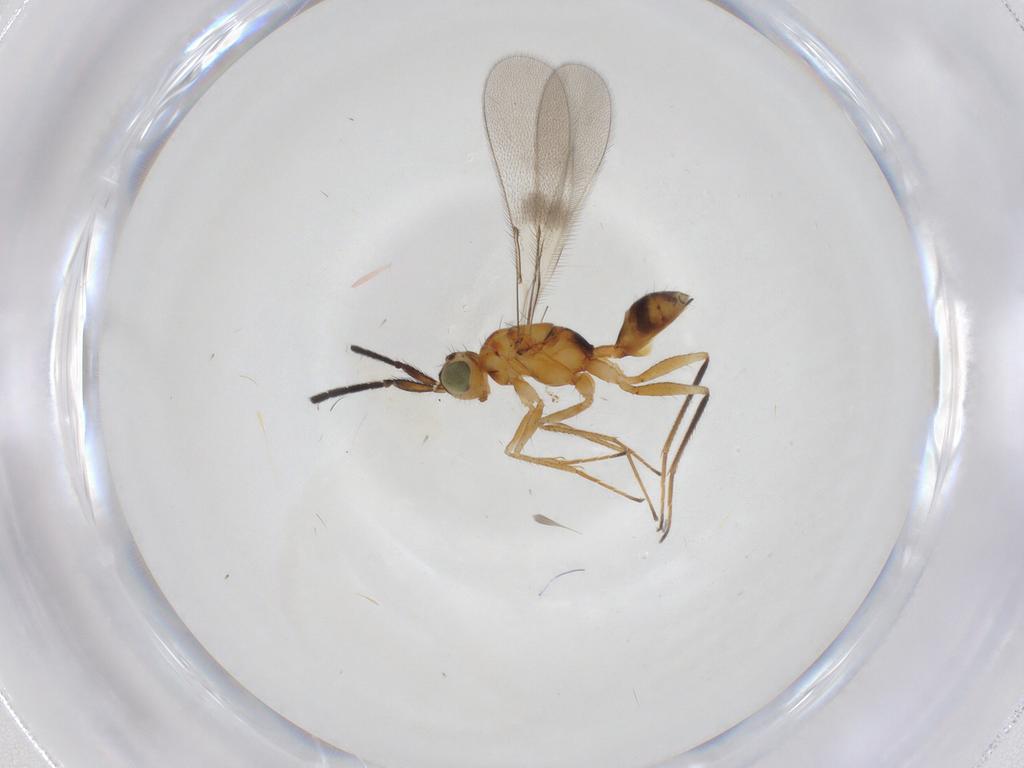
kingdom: Animalia
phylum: Arthropoda
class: Insecta
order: Hymenoptera
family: Mymaridae
